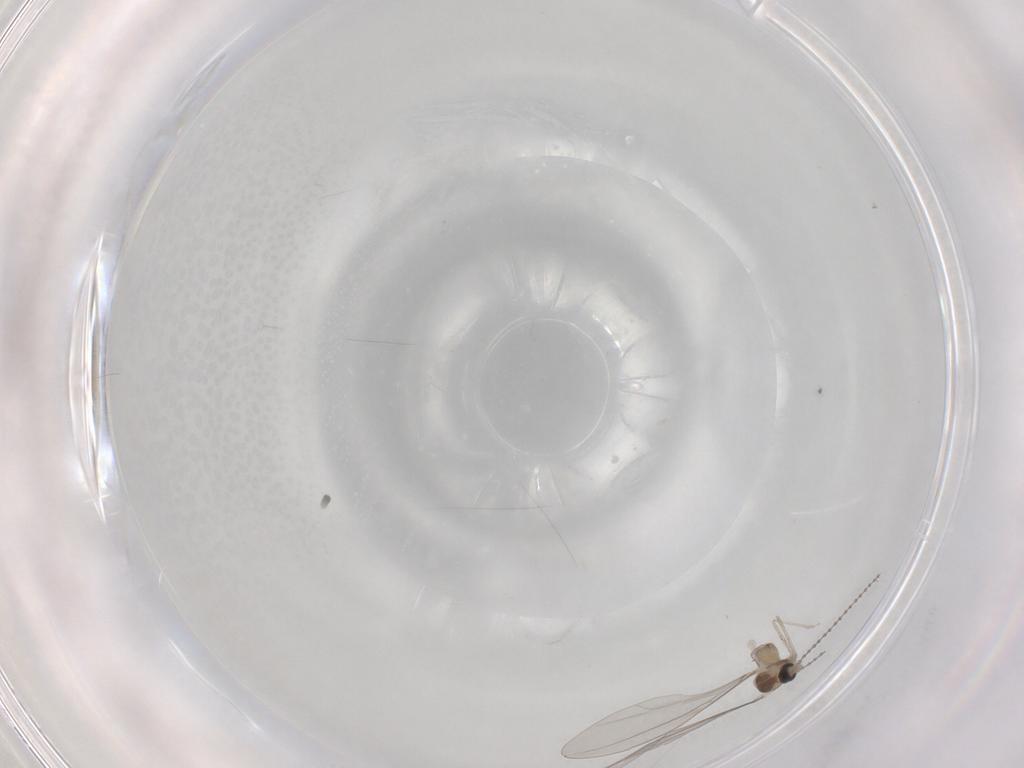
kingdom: Animalia
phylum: Arthropoda
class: Insecta
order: Diptera
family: Cecidomyiidae
